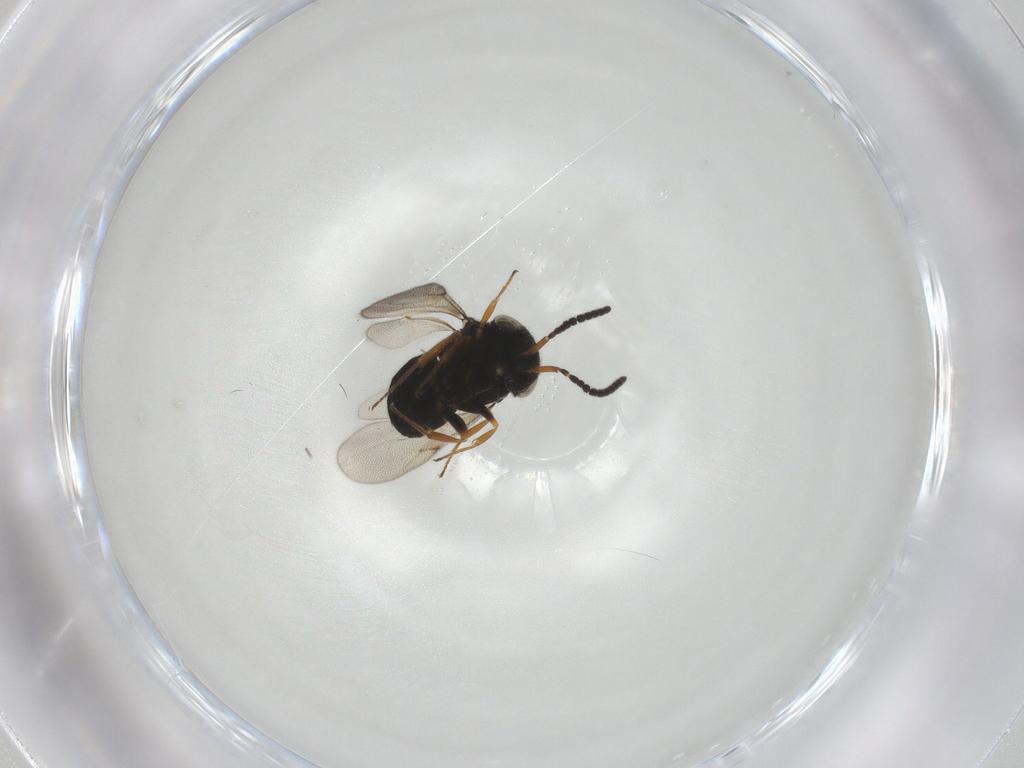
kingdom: Animalia
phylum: Arthropoda
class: Insecta
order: Hymenoptera
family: Scelionidae
